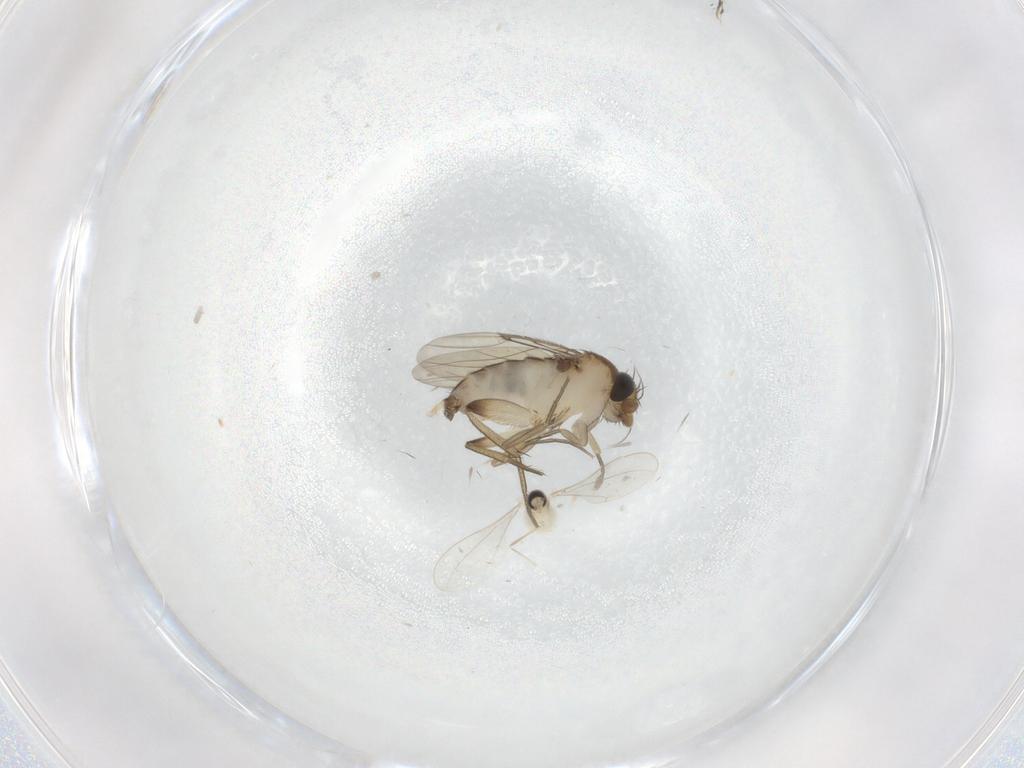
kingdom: Animalia
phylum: Arthropoda
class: Insecta
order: Diptera
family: Phoridae
